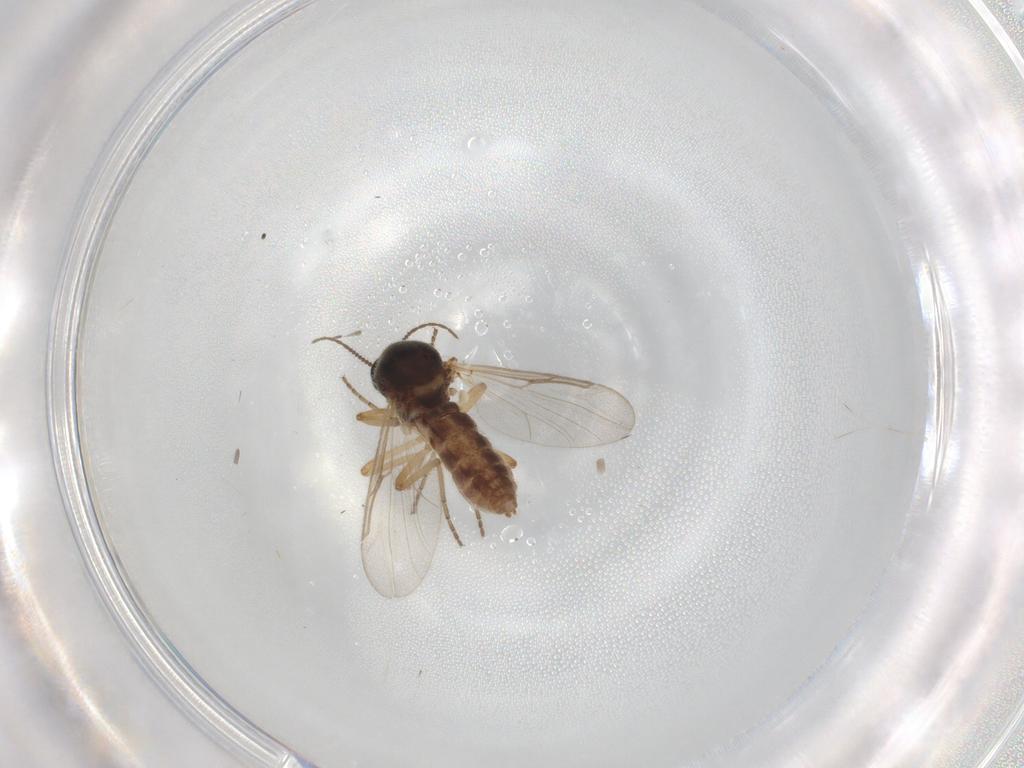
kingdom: Animalia
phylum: Arthropoda
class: Insecta
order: Diptera
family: Ceratopogonidae
